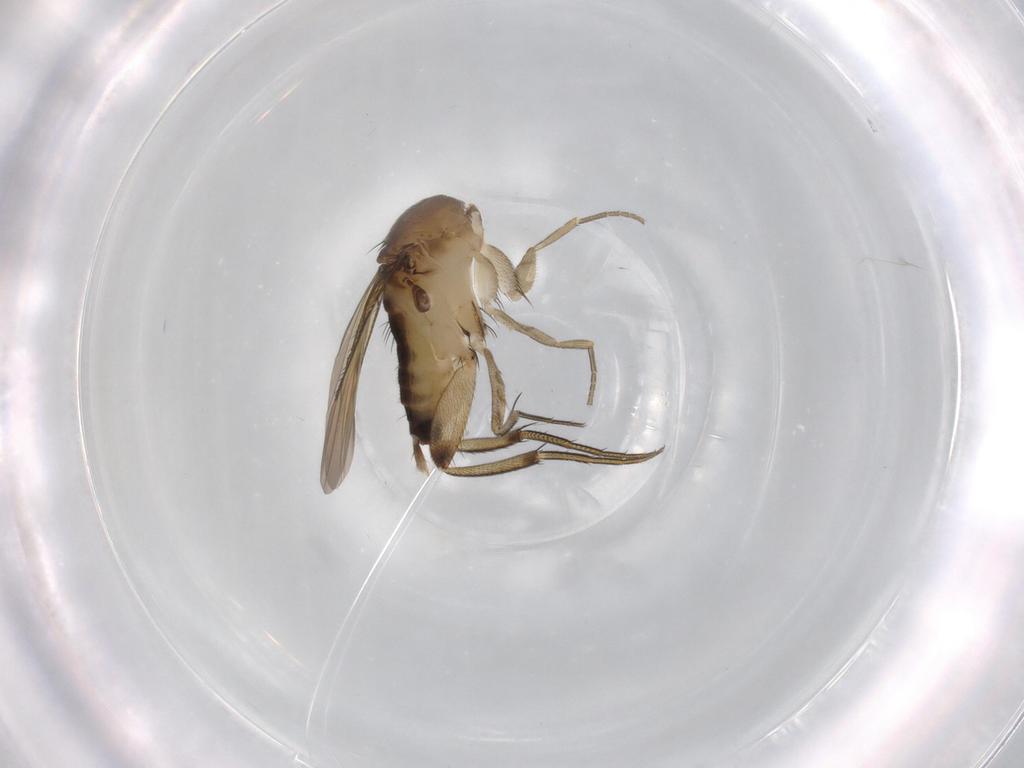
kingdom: Animalia
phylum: Arthropoda
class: Insecta
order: Diptera
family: Phoridae
